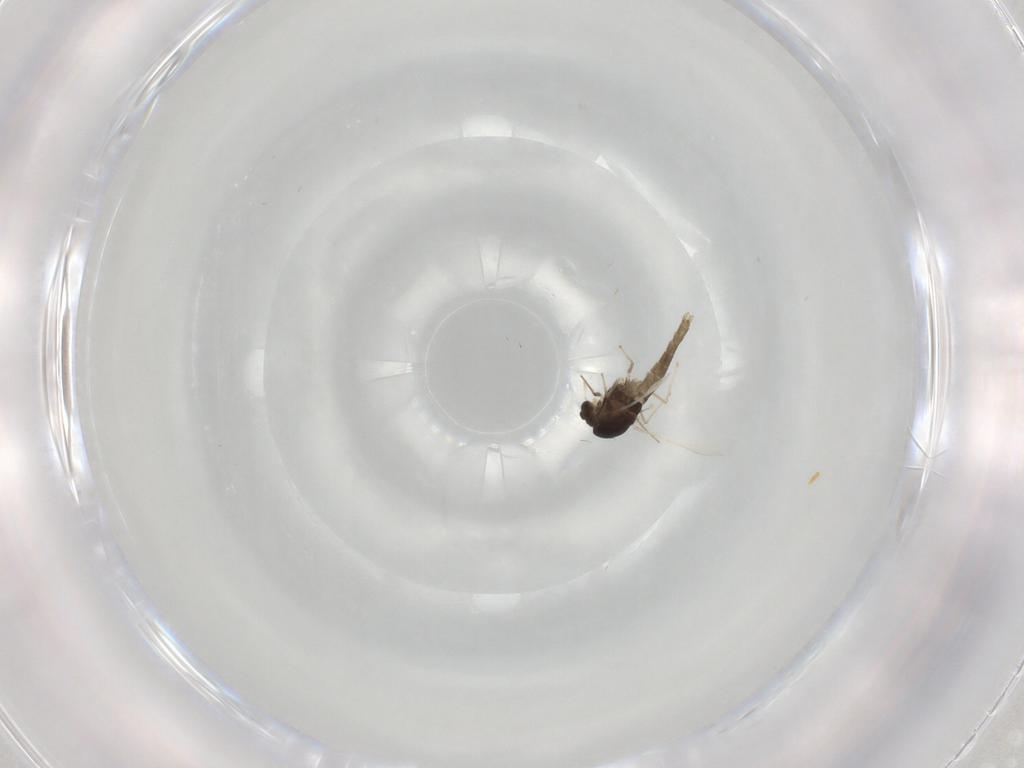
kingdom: Animalia
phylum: Arthropoda
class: Insecta
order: Diptera
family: Chironomidae
